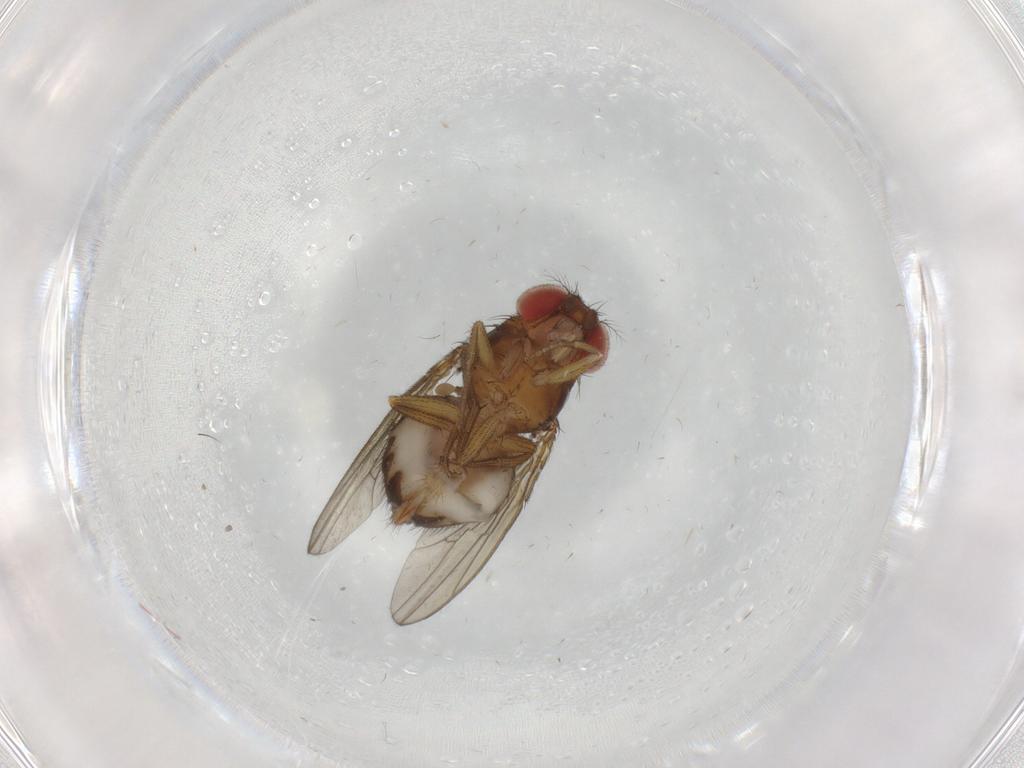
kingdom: Animalia
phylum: Arthropoda
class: Insecta
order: Diptera
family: Drosophilidae
